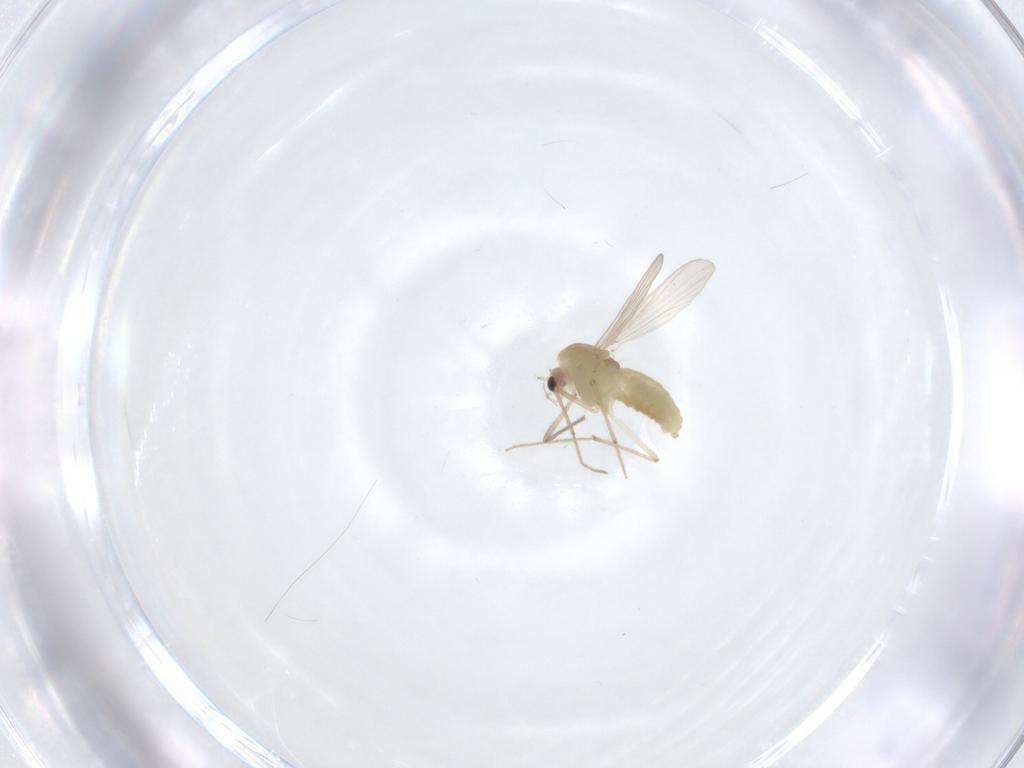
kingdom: Animalia
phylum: Arthropoda
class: Insecta
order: Diptera
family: Chironomidae
